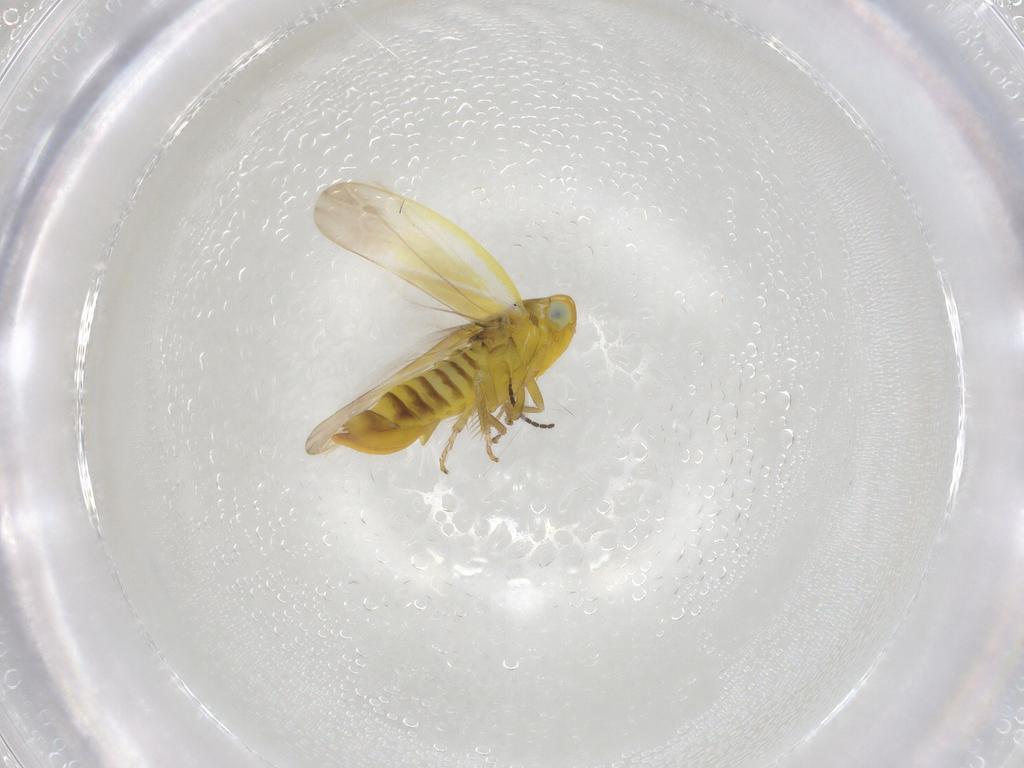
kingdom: Animalia
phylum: Arthropoda
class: Insecta
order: Hemiptera
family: Cicadellidae
